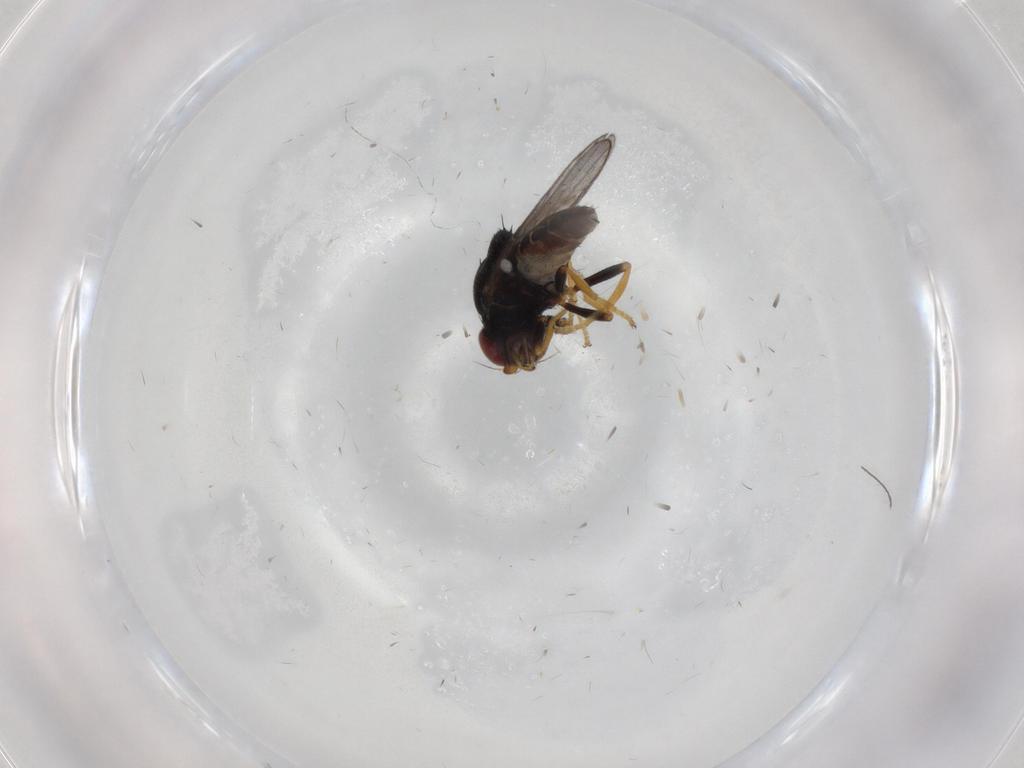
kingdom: Animalia
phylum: Arthropoda
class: Insecta
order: Diptera
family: Chloropidae
